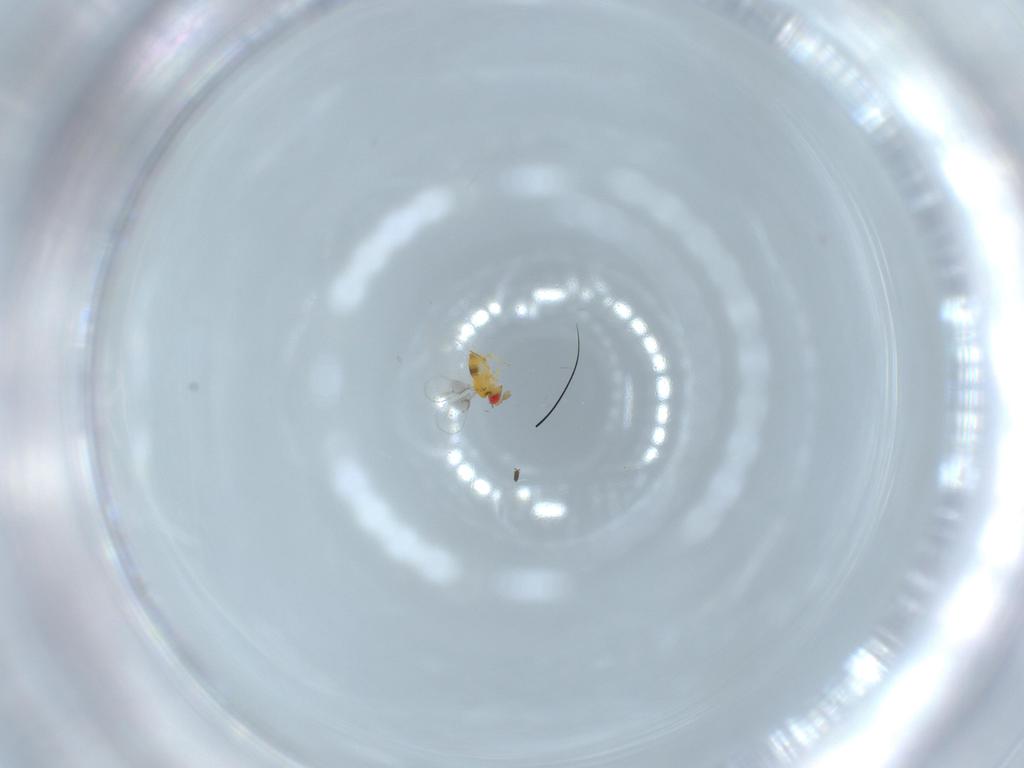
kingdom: Animalia
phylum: Arthropoda
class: Insecta
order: Hymenoptera
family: Trichogrammatidae
